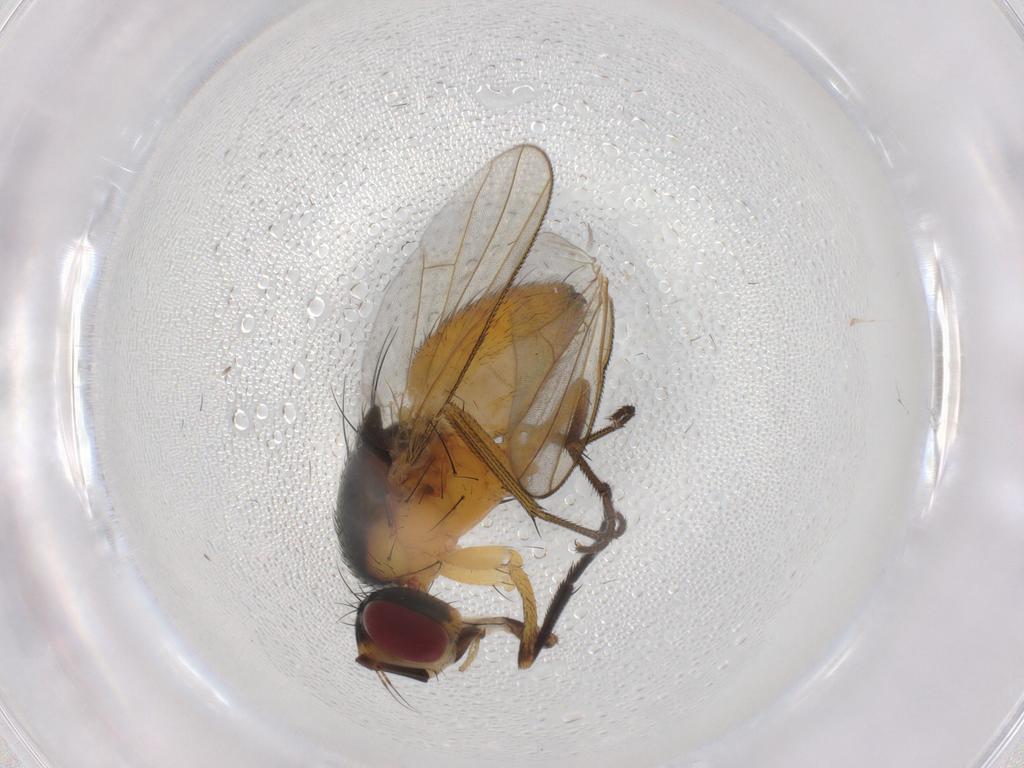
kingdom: Animalia
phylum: Arthropoda
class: Insecta
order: Diptera
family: Muscidae
